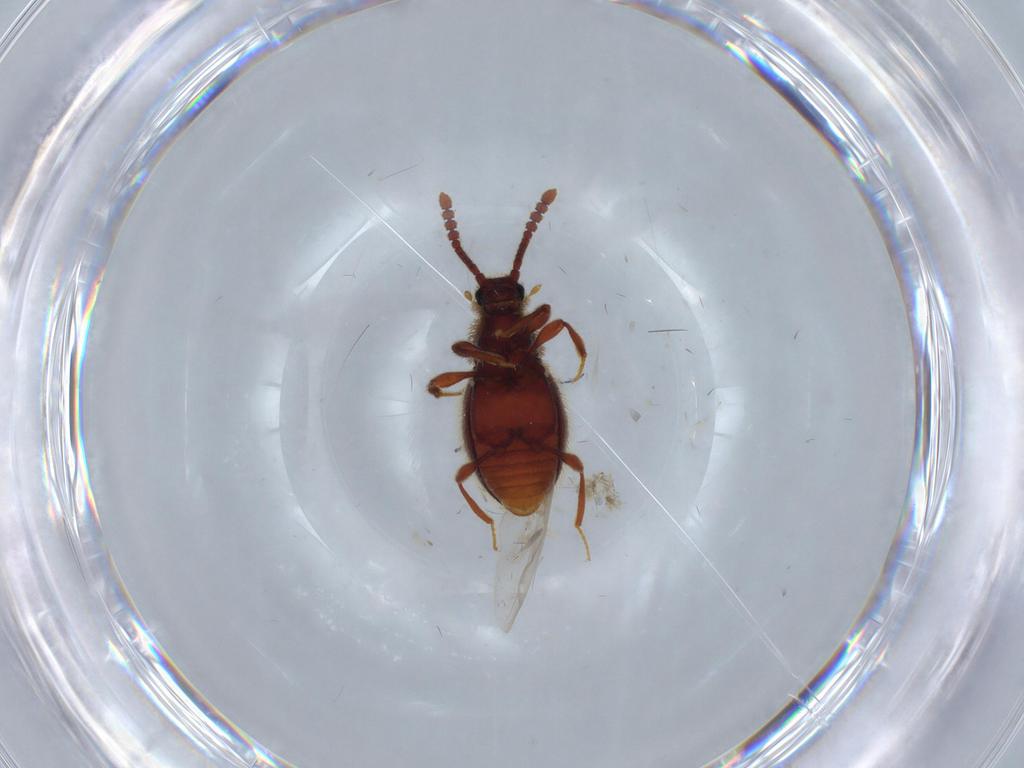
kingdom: Animalia
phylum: Arthropoda
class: Insecta
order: Coleoptera
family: Staphylinidae
